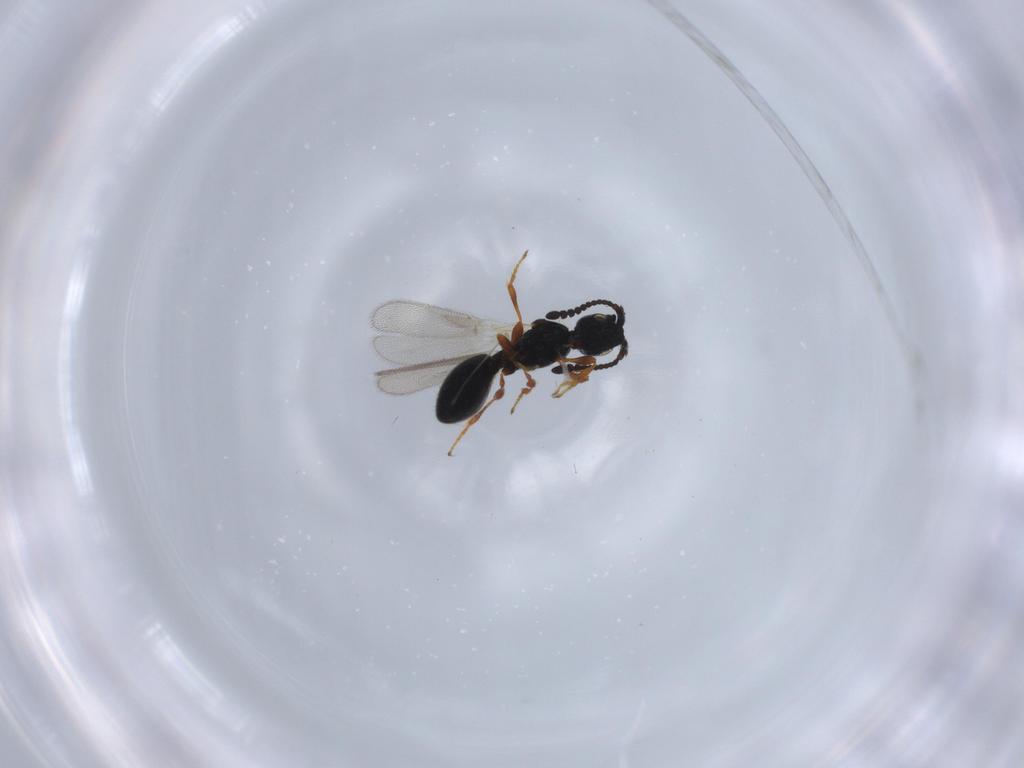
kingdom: Animalia
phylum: Arthropoda
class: Insecta
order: Hymenoptera
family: Diapriidae
